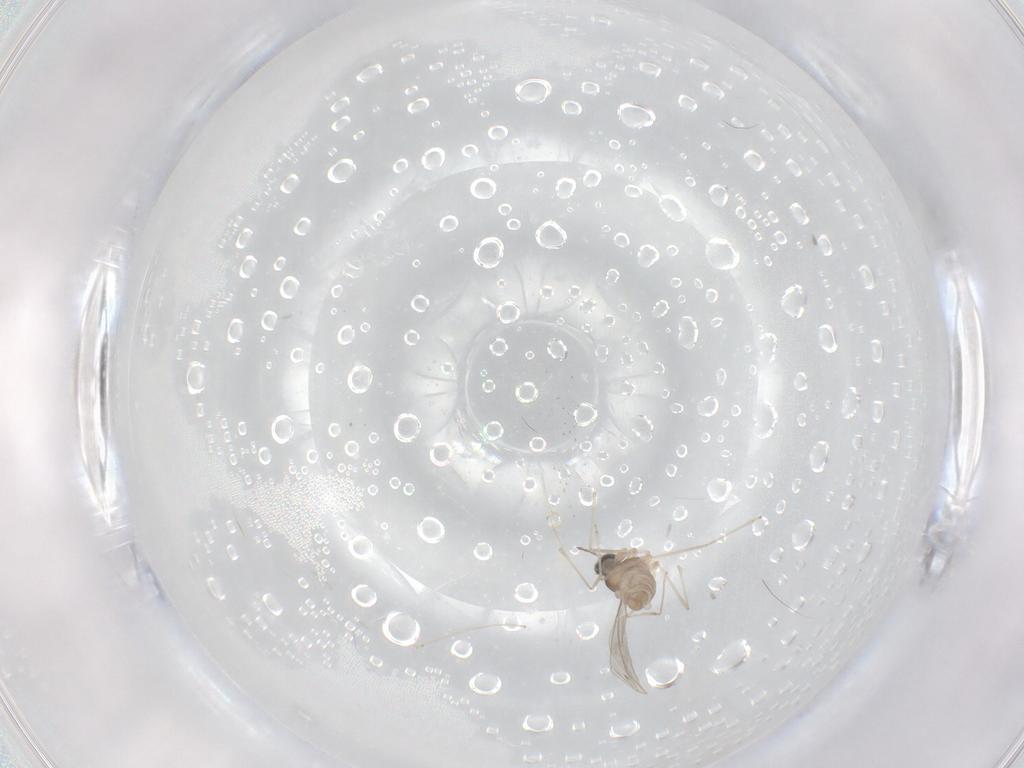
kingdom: Animalia
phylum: Arthropoda
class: Insecta
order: Diptera
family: Cecidomyiidae
